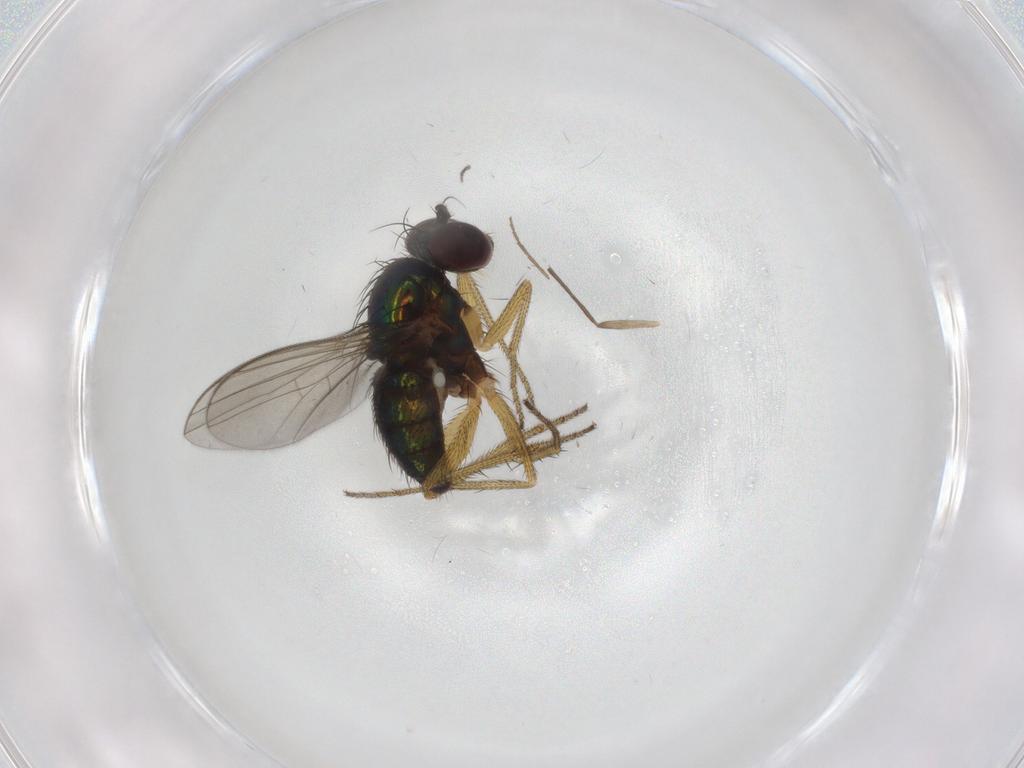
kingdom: Animalia
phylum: Arthropoda
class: Insecta
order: Diptera
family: Chironomidae
